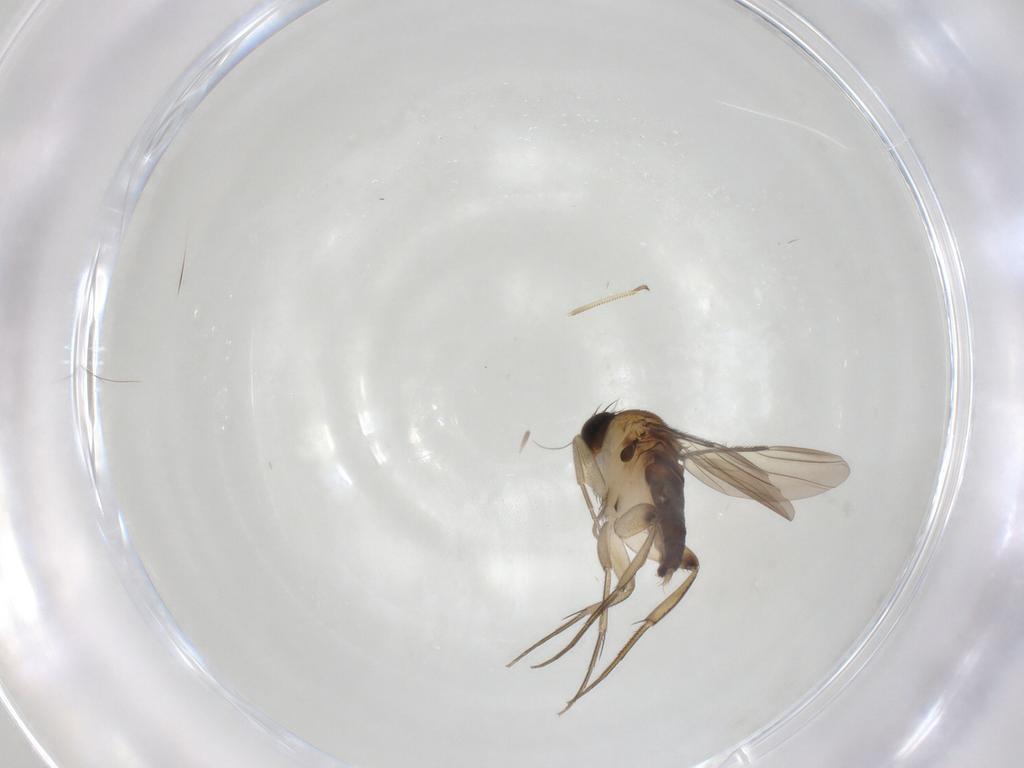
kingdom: Animalia
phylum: Arthropoda
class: Insecta
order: Diptera
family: Phoridae
